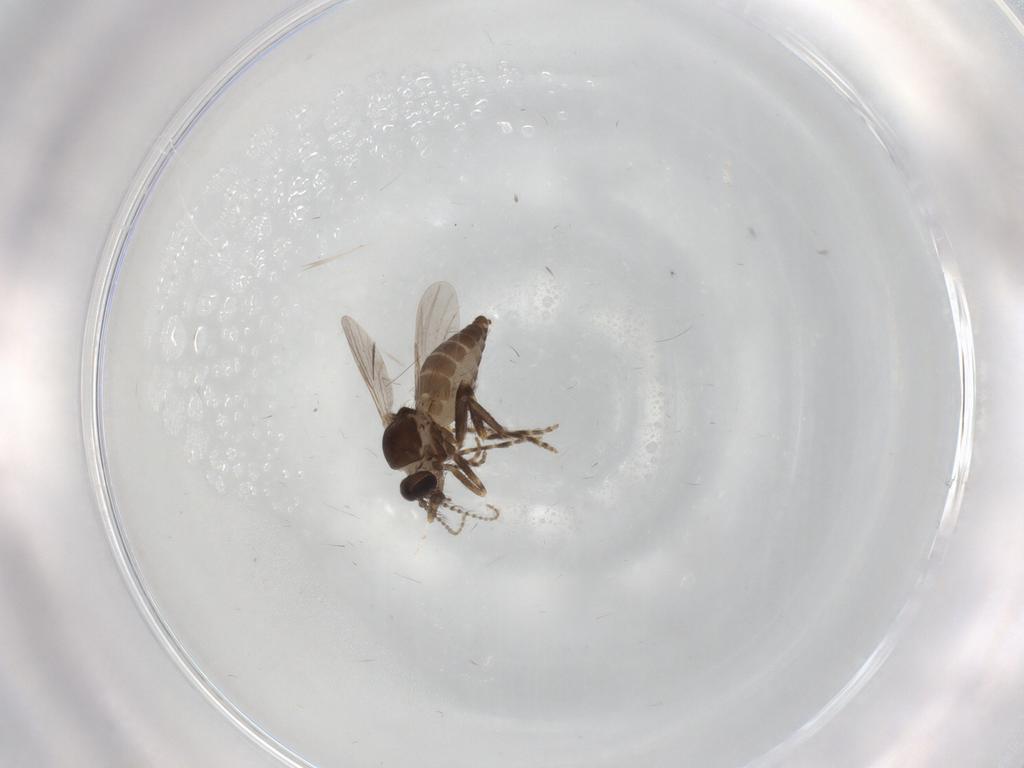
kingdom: Animalia
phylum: Arthropoda
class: Insecta
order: Diptera
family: Ceratopogonidae
